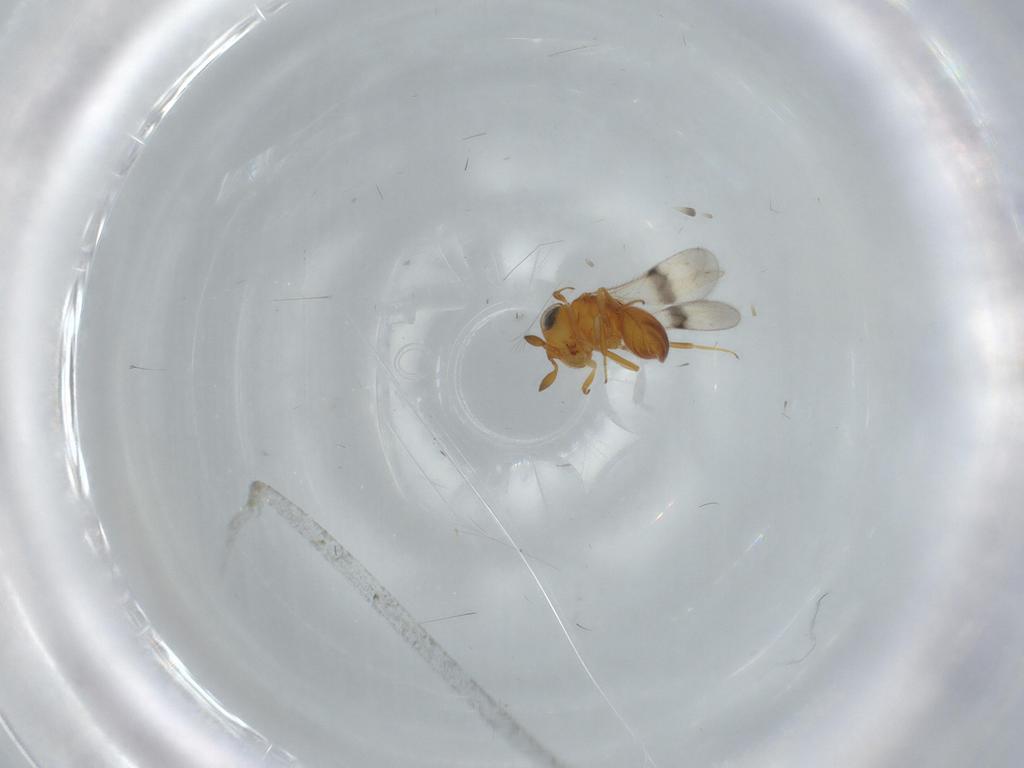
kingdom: Animalia
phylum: Arthropoda
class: Insecta
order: Hymenoptera
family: Scelionidae
